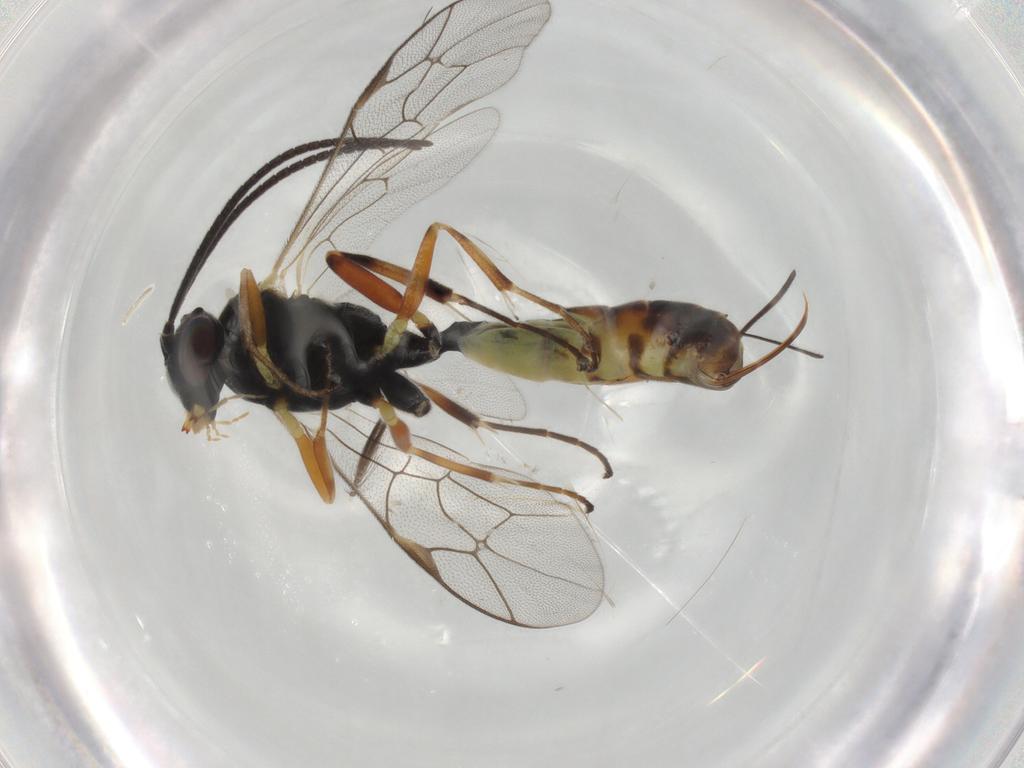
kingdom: Animalia
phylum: Arthropoda
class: Insecta
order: Hymenoptera
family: Ichneumonidae
